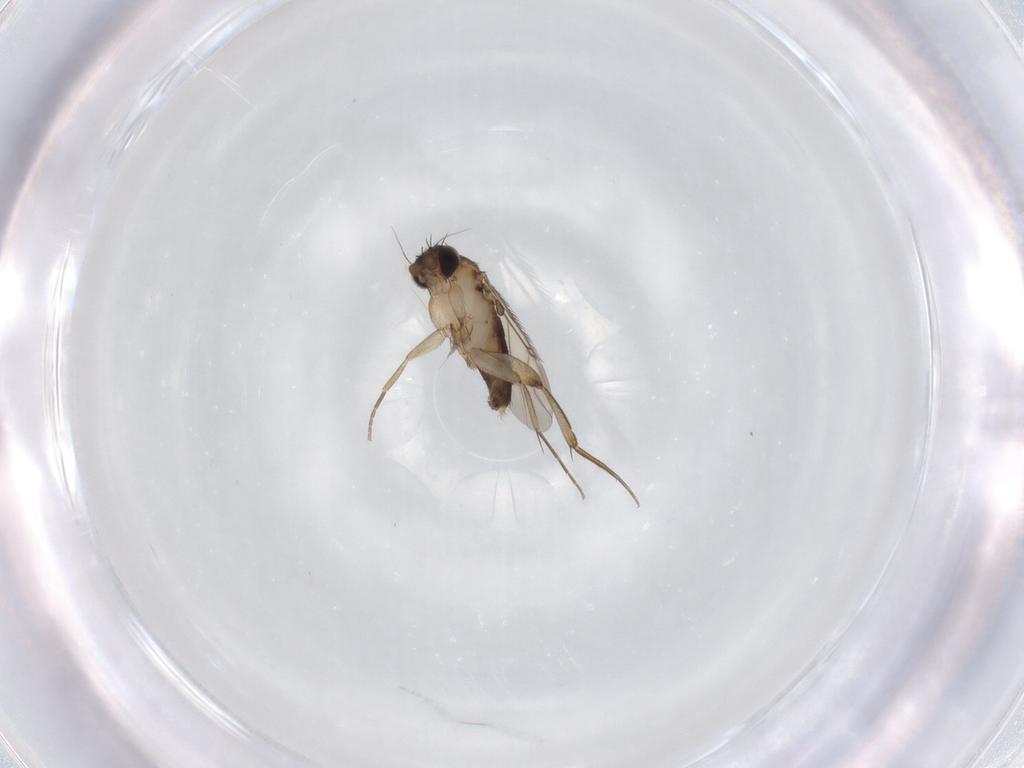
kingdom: Animalia
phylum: Arthropoda
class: Insecta
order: Diptera
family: Phoridae
